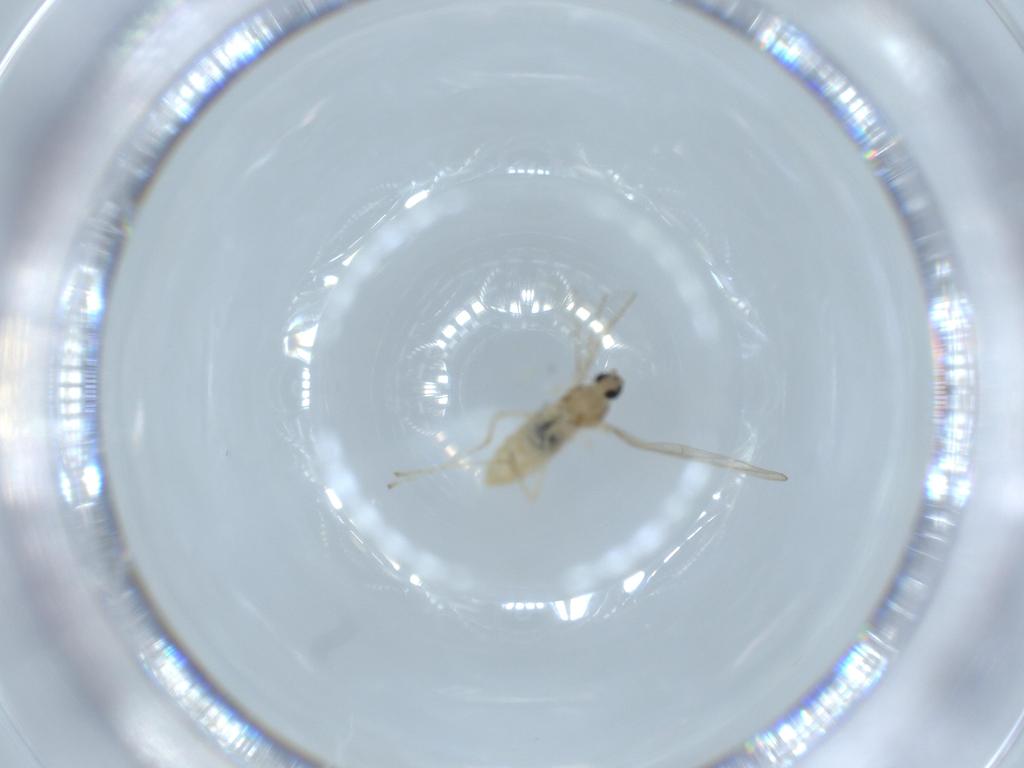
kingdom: Animalia
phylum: Arthropoda
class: Insecta
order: Diptera
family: Cecidomyiidae
